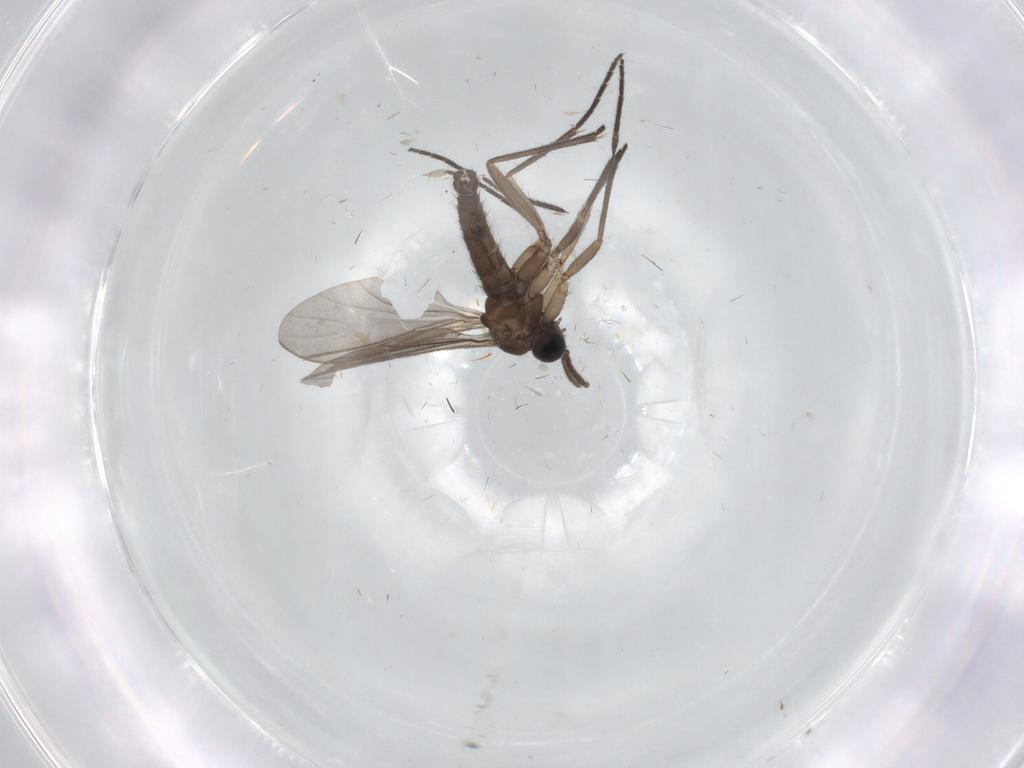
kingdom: Animalia
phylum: Arthropoda
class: Insecta
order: Diptera
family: Sciaridae
